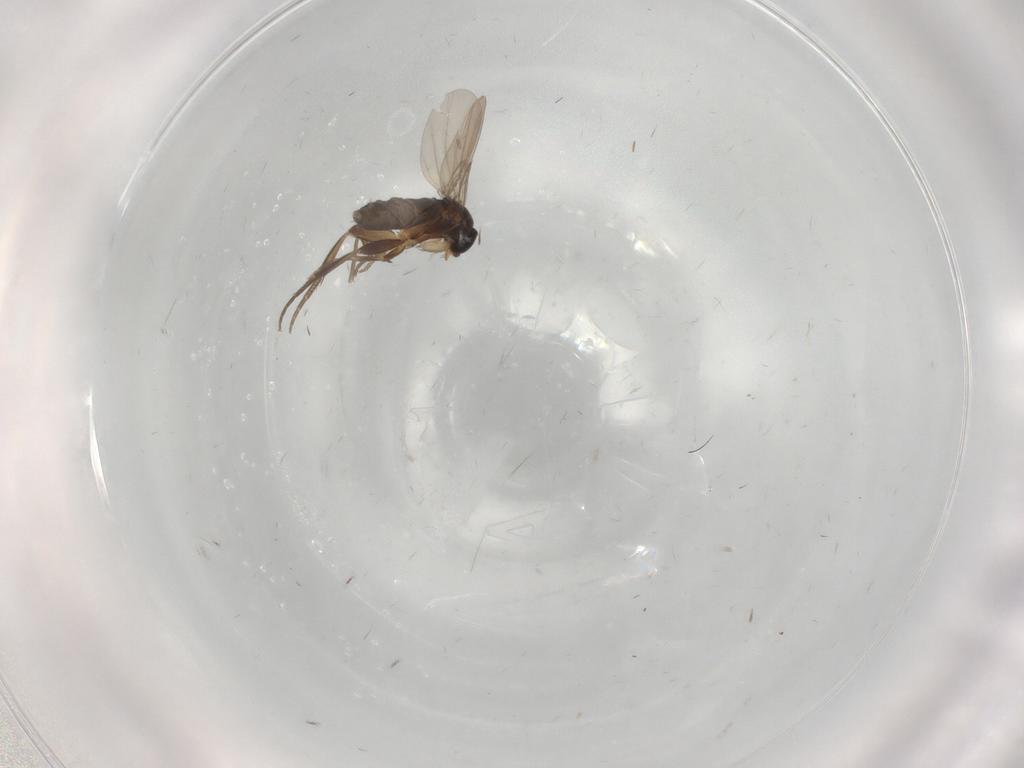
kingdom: Animalia
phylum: Arthropoda
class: Insecta
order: Diptera
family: Phoridae
